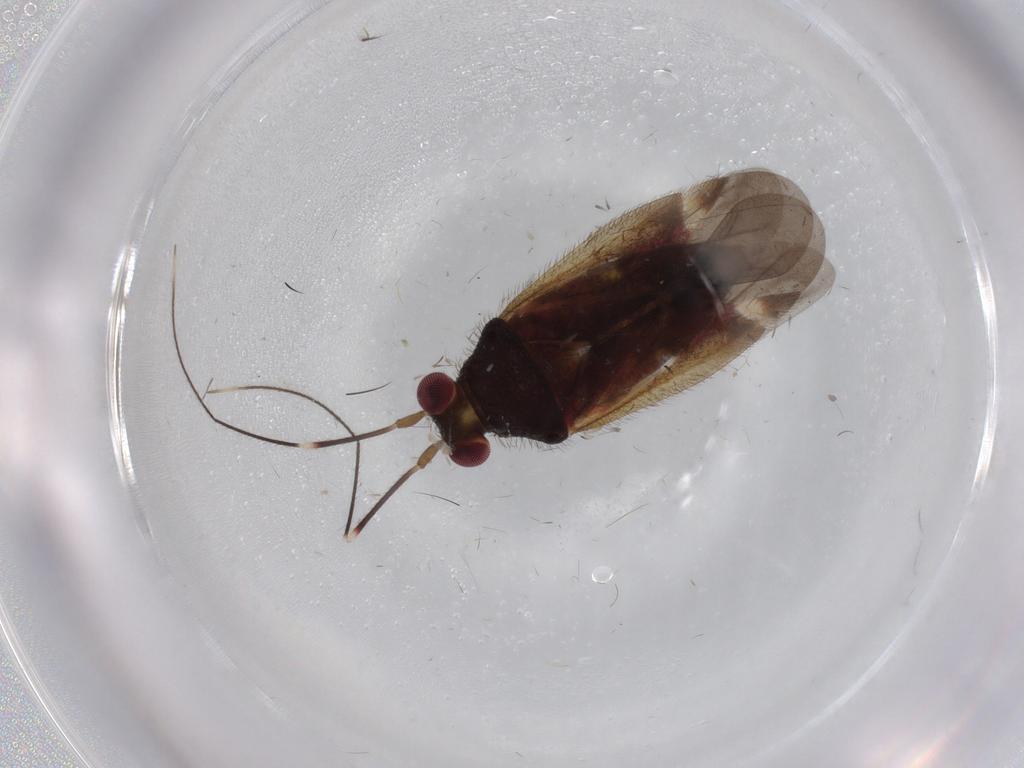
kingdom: Animalia
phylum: Arthropoda
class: Insecta
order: Hemiptera
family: Miridae
